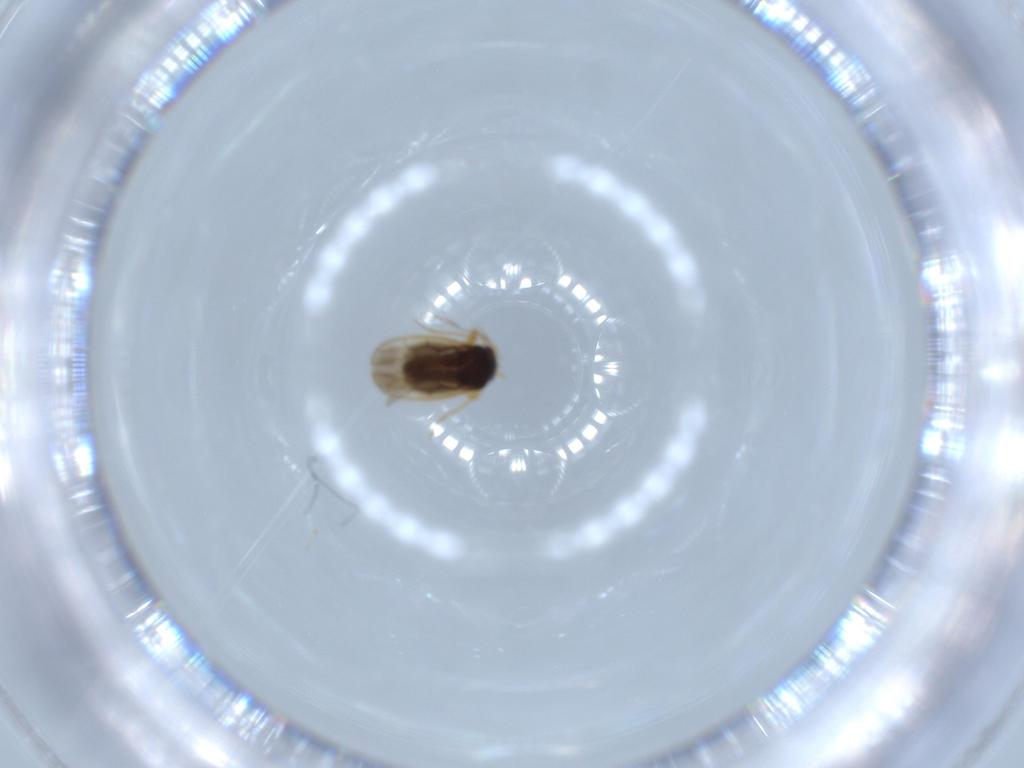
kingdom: Animalia
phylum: Arthropoda
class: Insecta
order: Hemiptera
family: Schizopteridae
